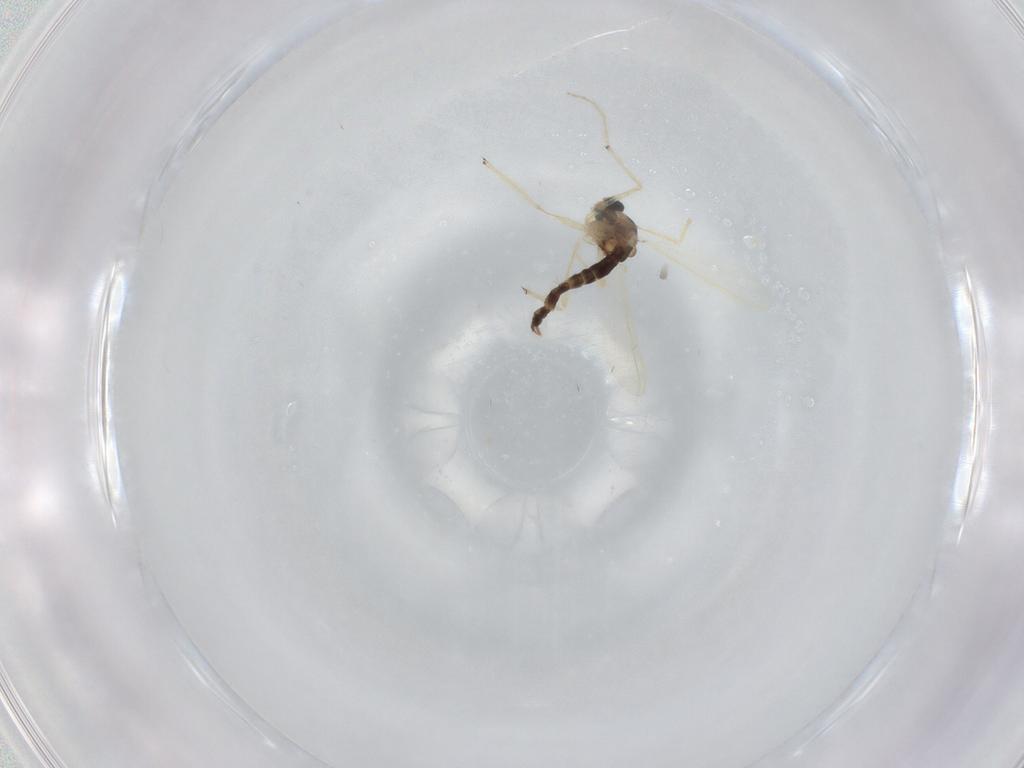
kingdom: Animalia
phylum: Arthropoda
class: Insecta
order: Diptera
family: Chironomidae
